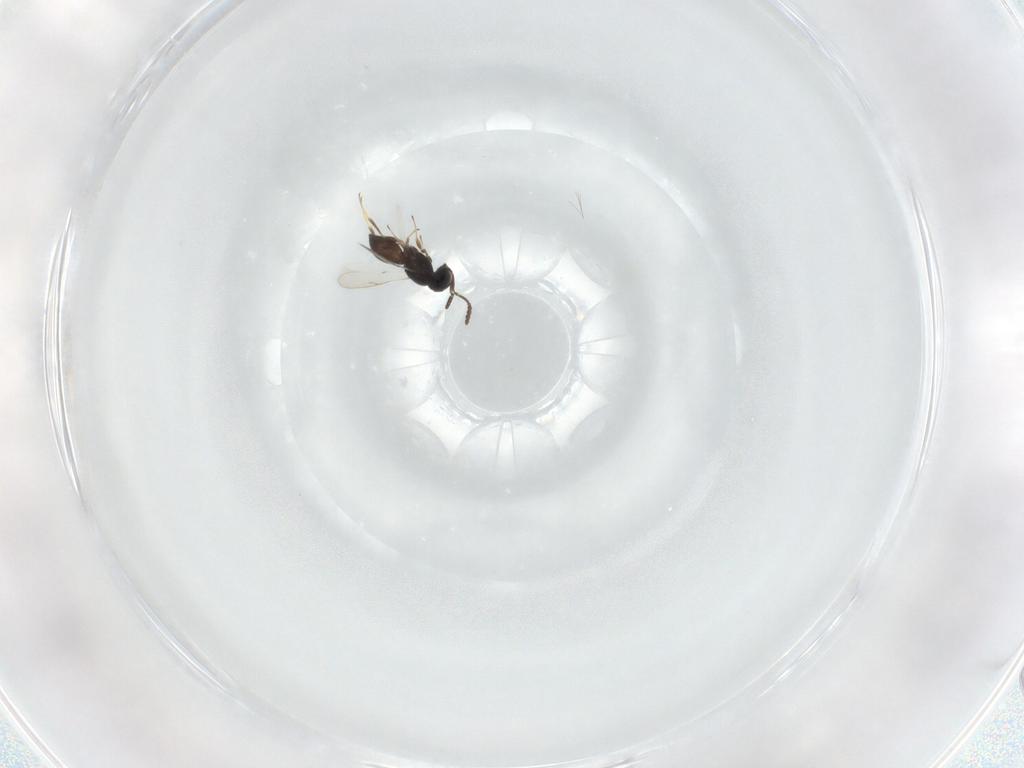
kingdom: Animalia
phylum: Arthropoda
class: Insecta
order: Hymenoptera
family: Scelionidae
